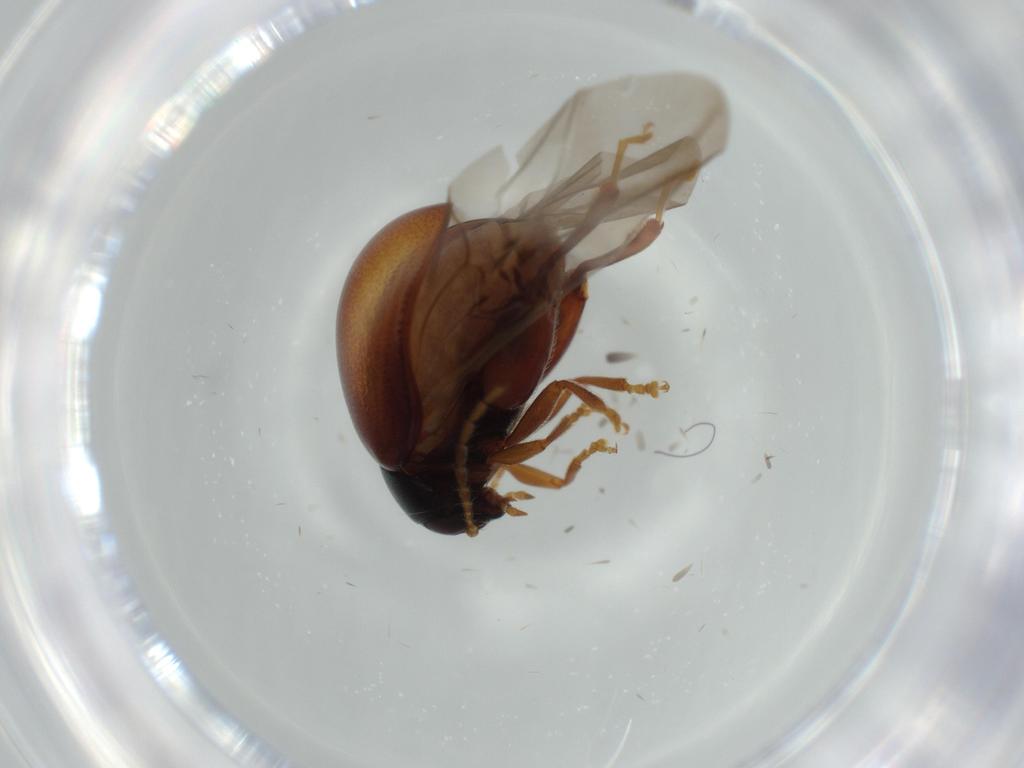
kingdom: Animalia
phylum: Arthropoda
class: Insecta
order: Coleoptera
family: Chrysomelidae
